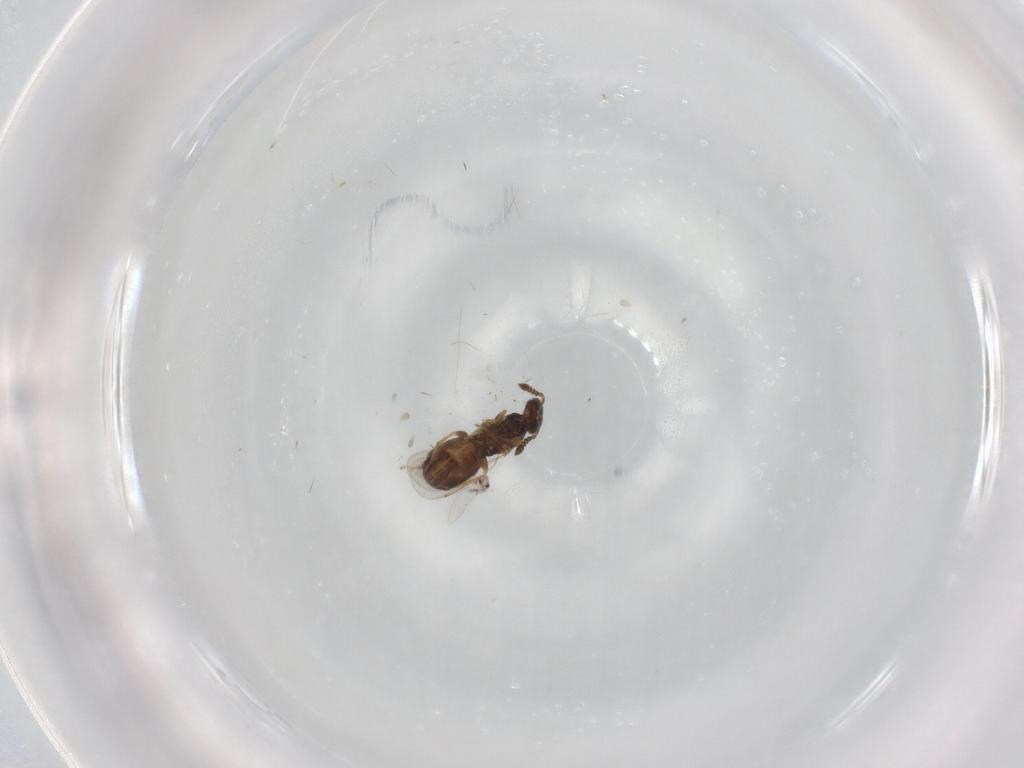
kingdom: Animalia
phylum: Arthropoda
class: Insecta
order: Hymenoptera
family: Eulophidae
